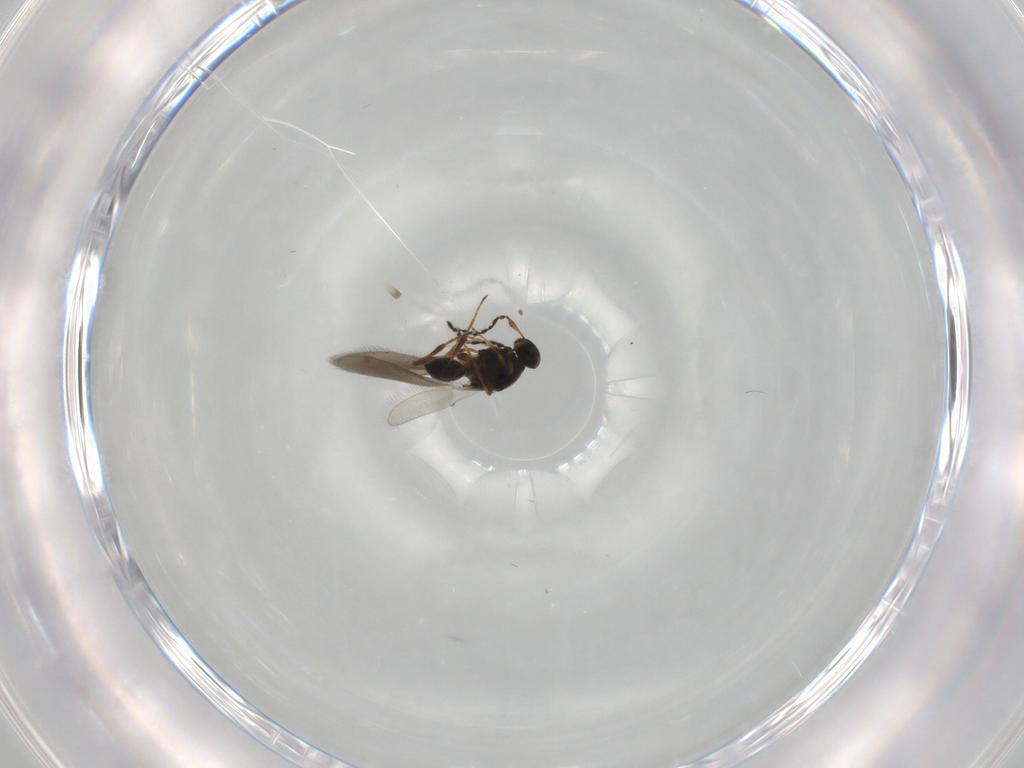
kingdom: Animalia
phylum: Arthropoda
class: Insecta
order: Hymenoptera
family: Platygastridae
